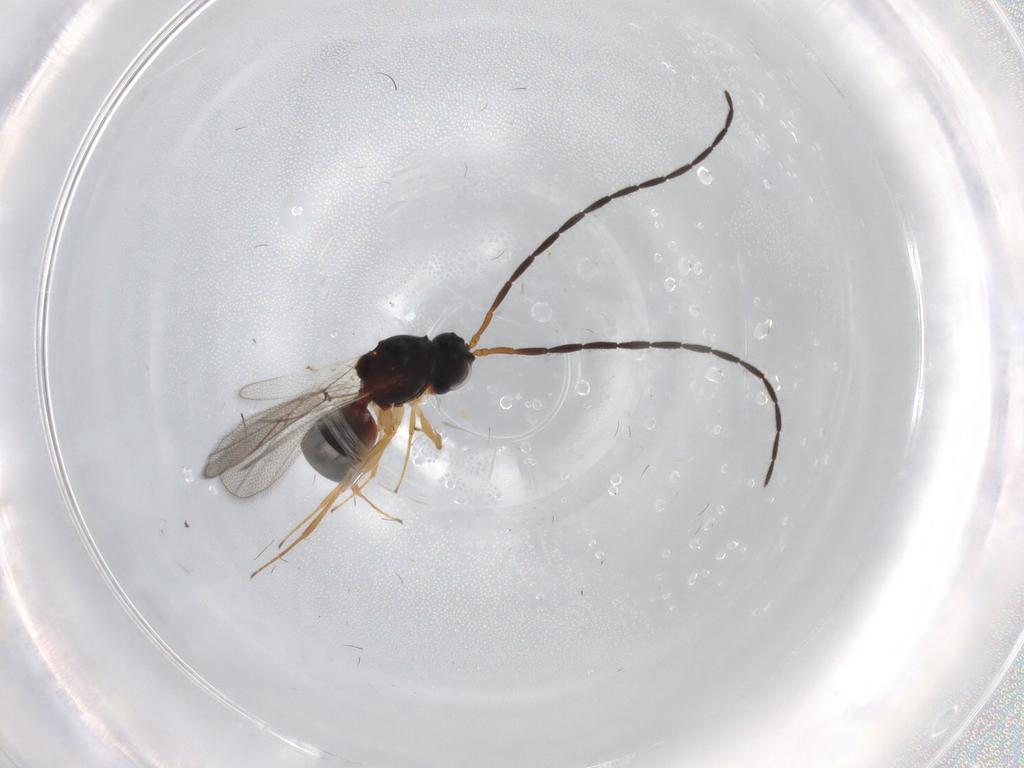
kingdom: Animalia
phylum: Arthropoda
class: Insecta
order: Hymenoptera
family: Figitidae
